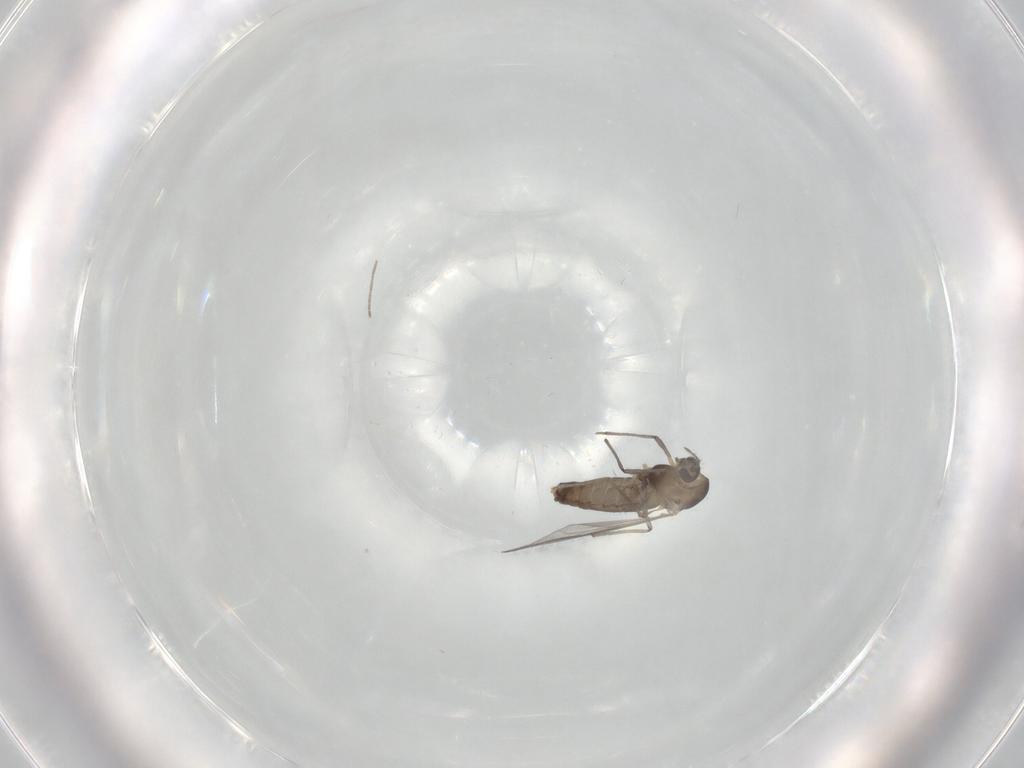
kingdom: Animalia
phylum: Arthropoda
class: Insecta
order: Diptera
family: Chironomidae
